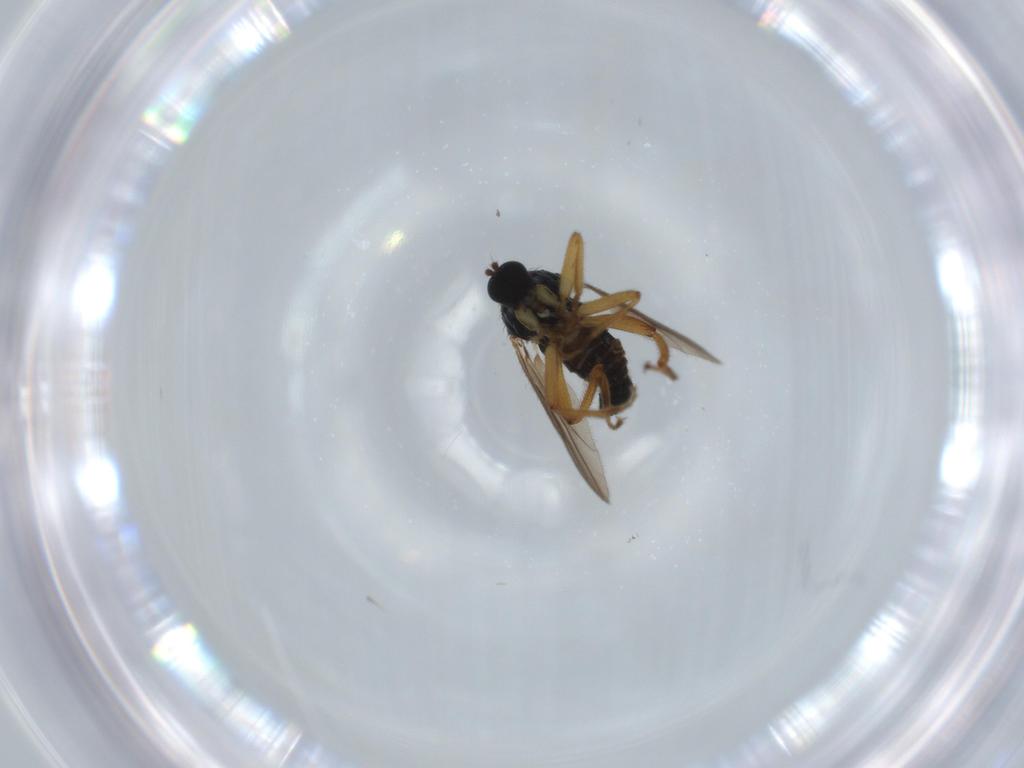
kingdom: Animalia
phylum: Arthropoda
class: Insecta
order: Diptera
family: Hybotidae
